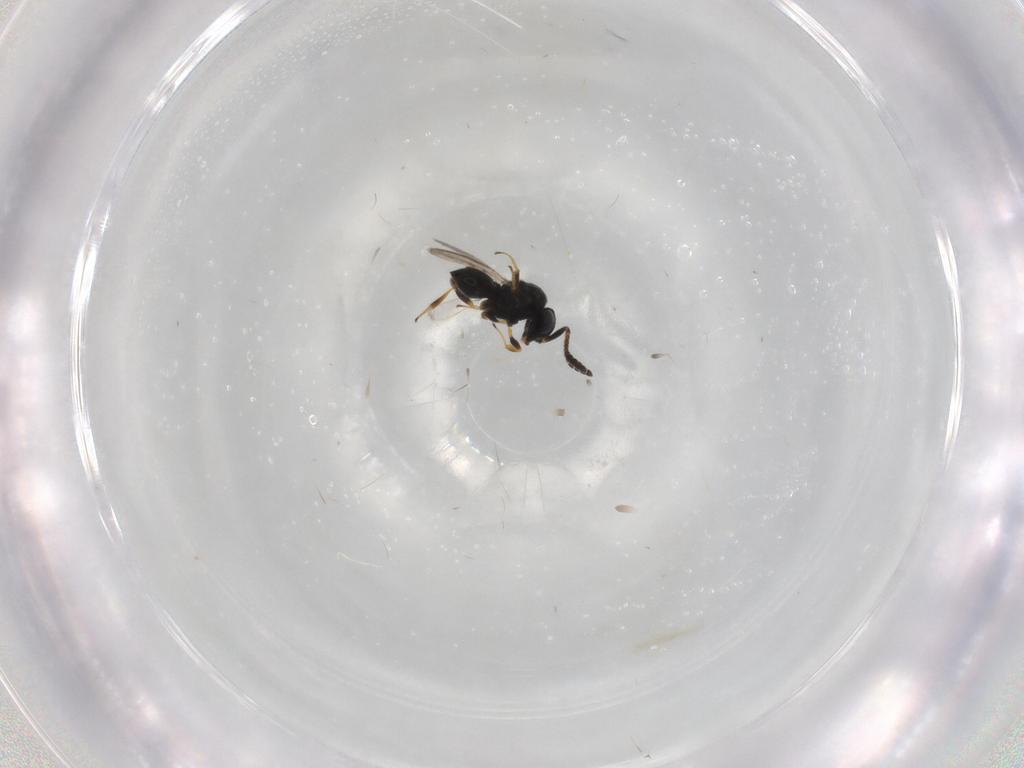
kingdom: Animalia
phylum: Arthropoda
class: Insecta
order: Hymenoptera
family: Scelionidae
